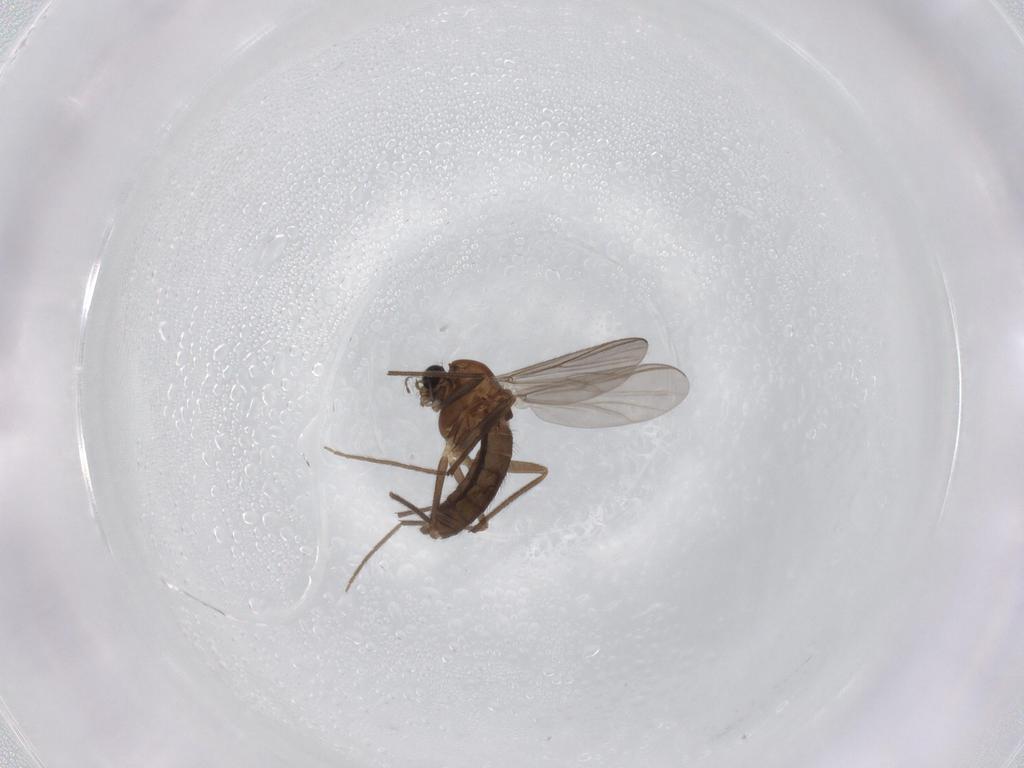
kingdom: Animalia
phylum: Arthropoda
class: Insecta
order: Diptera
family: Chironomidae
